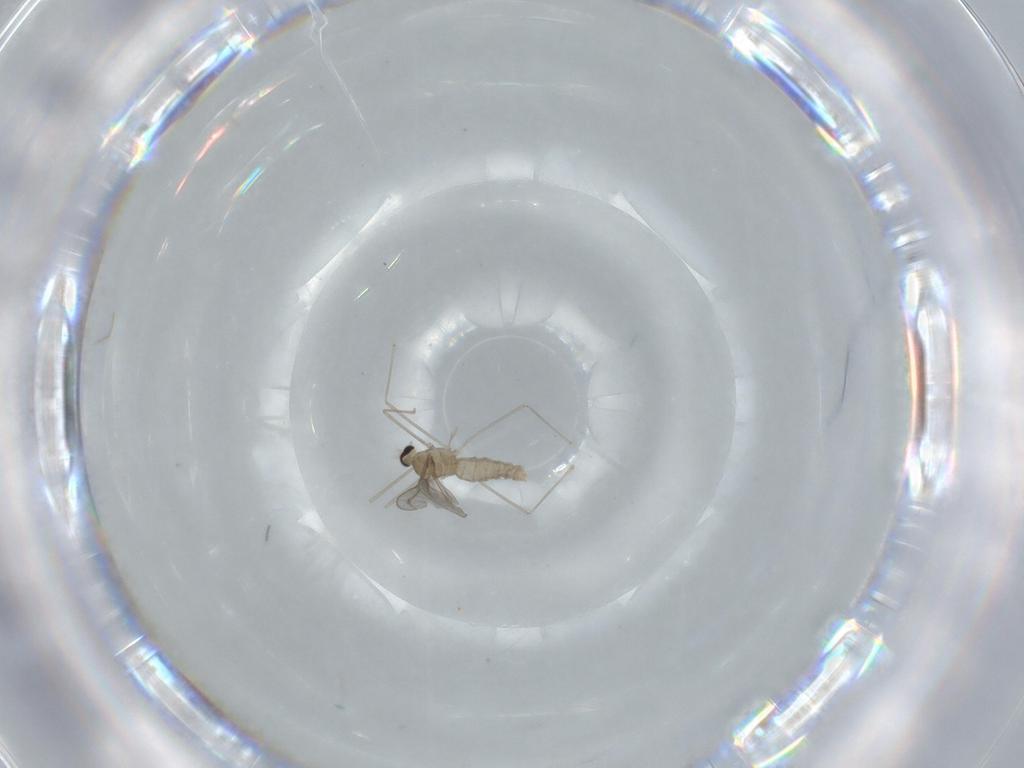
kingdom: Animalia
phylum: Arthropoda
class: Insecta
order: Diptera
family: Cecidomyiidae
